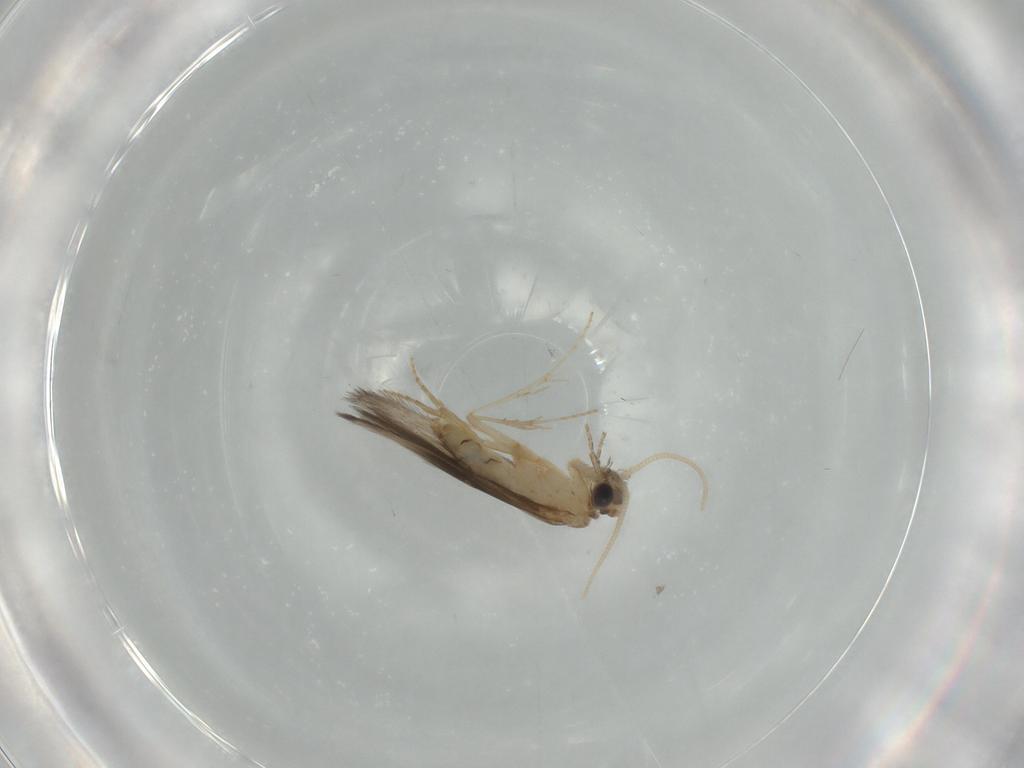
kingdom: Animalia
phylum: Arthropoda
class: Insecta
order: Trichoptera
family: Hydroptilidae
